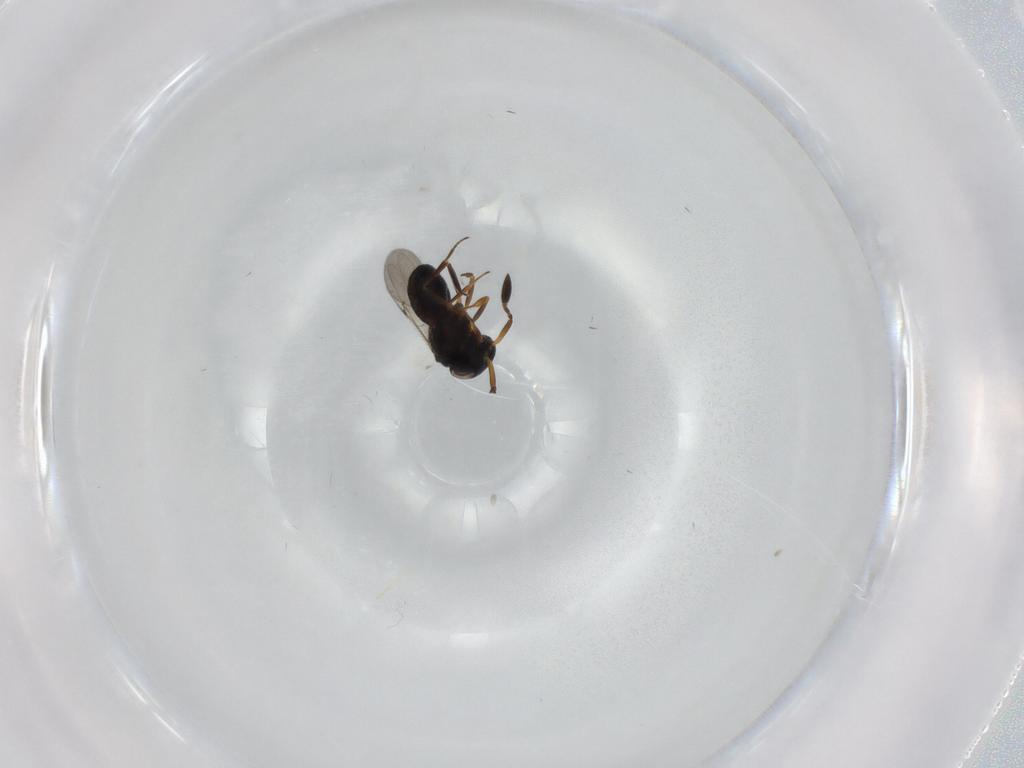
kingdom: Animalia
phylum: Arthropoda
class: Insecta
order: Hymenoptera
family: Scelionidae
